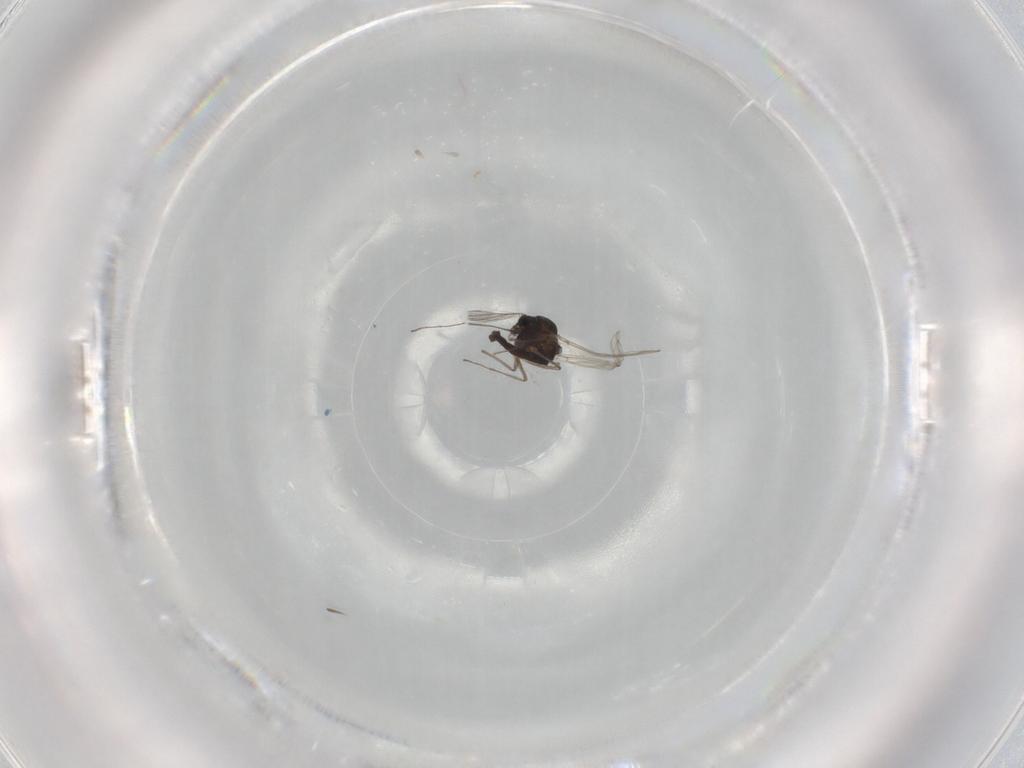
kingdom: Animalia
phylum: Arthropoda
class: Insecta
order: Diptera
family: Chironomidae
